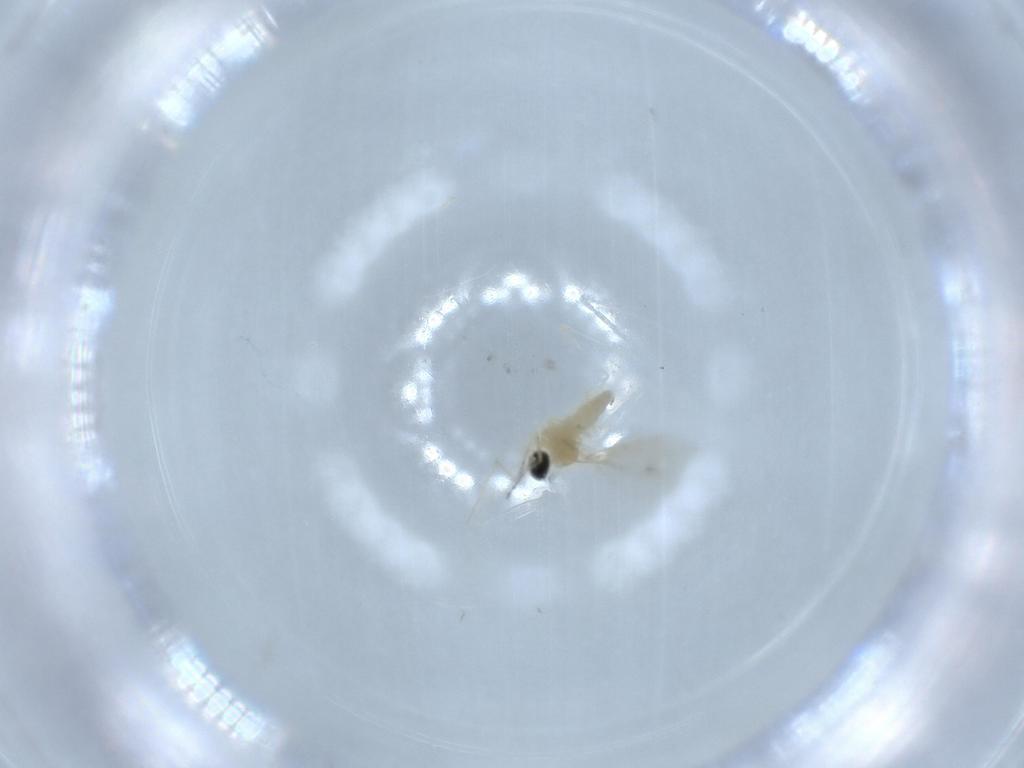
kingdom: Animalia
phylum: Arthropoda
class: Insecta
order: Diptera
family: Cecidomyiidae
